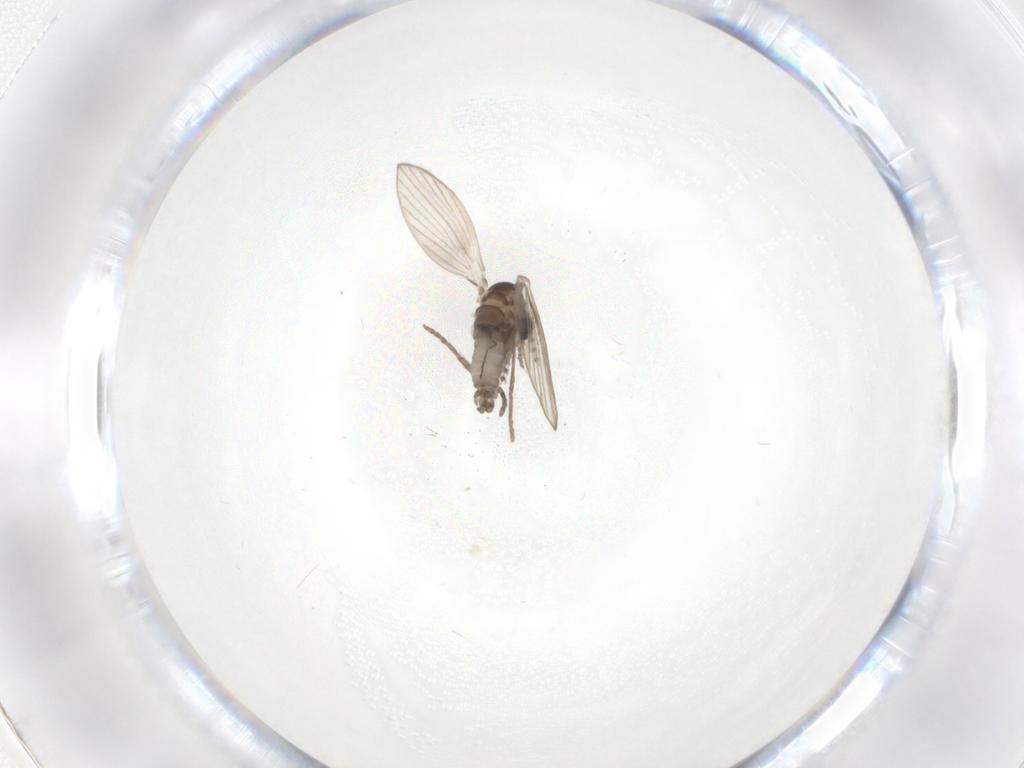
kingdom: Animalia
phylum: Arthropoda
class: Insecta
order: Diptera
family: Psychodidae
